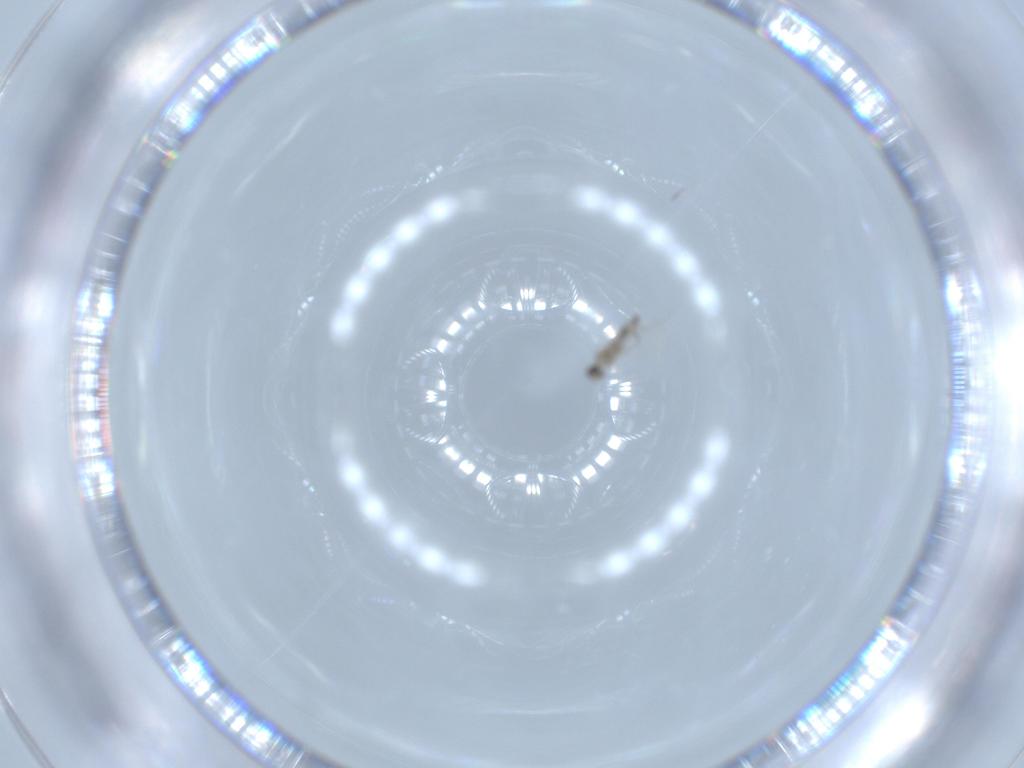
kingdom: Animalia
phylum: Arthropoda
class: Insecta
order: Diptera
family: Cecidomyiidae
